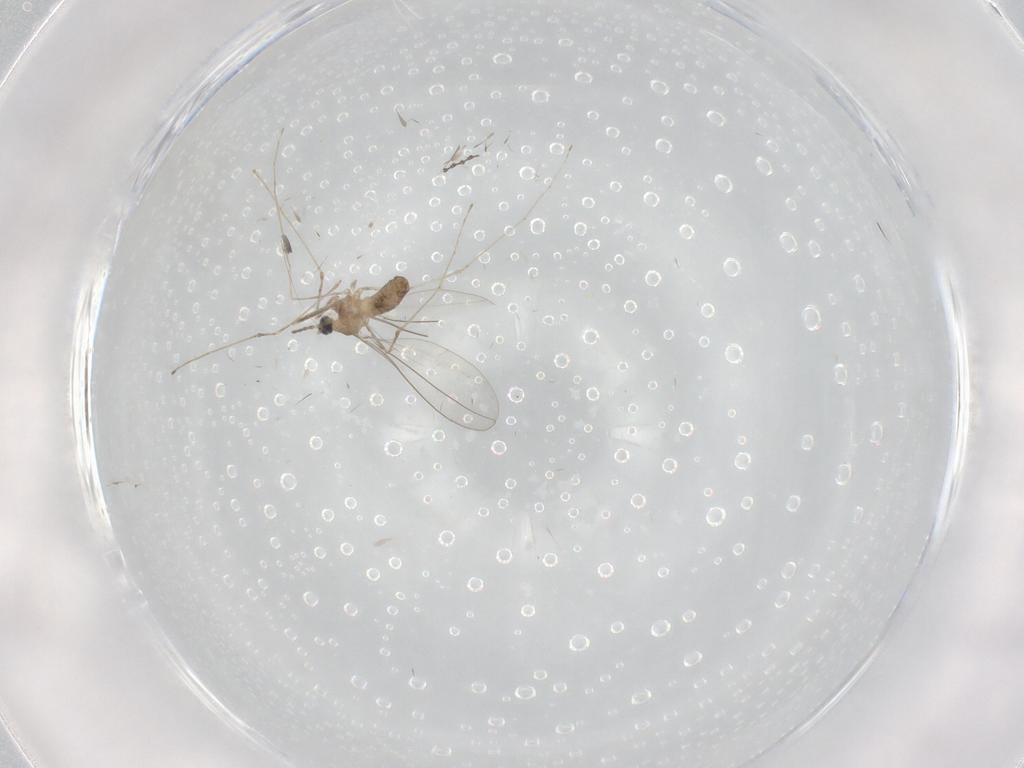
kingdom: Animalia
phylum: Arthropoda
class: Insecta
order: Diptera
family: Cecidomyiidae
